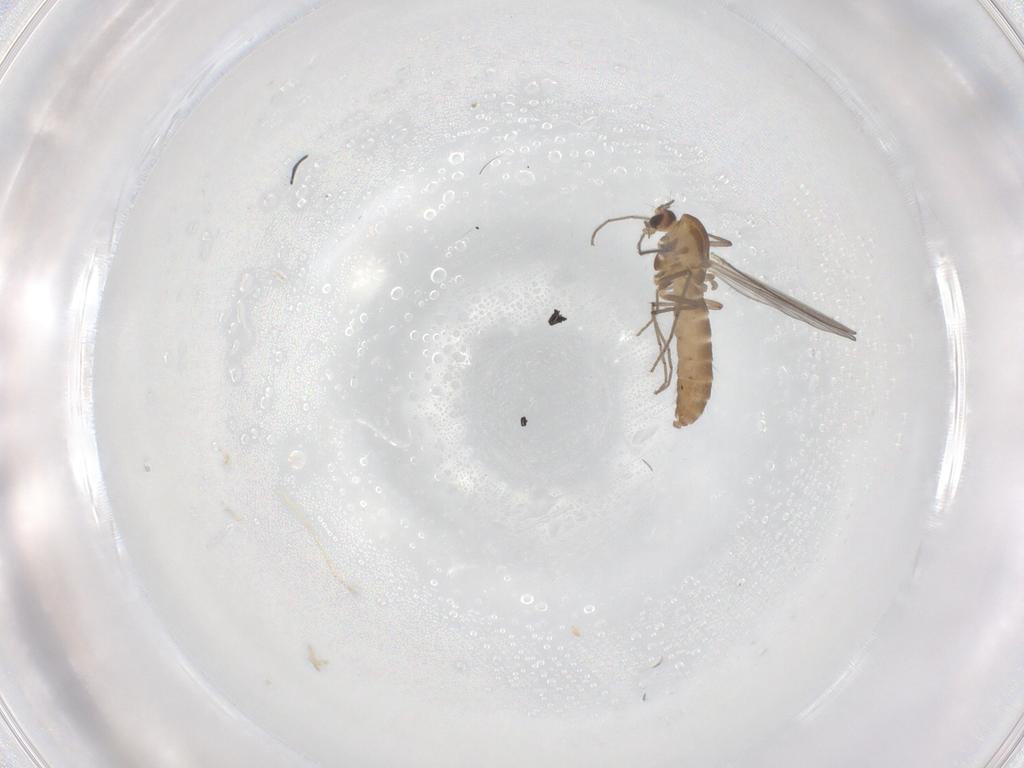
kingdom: Animalia
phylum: Arthropoda
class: Insecta
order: Diptera
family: Chironomidae
